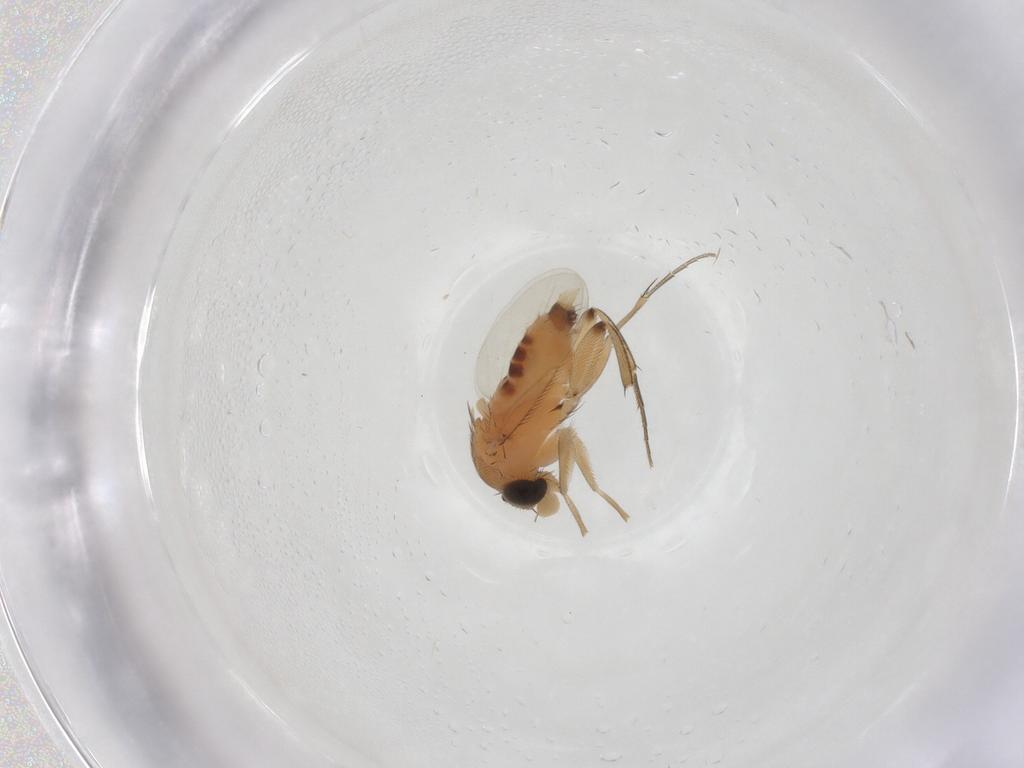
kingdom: Animalia
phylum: Arthropoda
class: Insecta
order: Diptera
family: Phoridae
